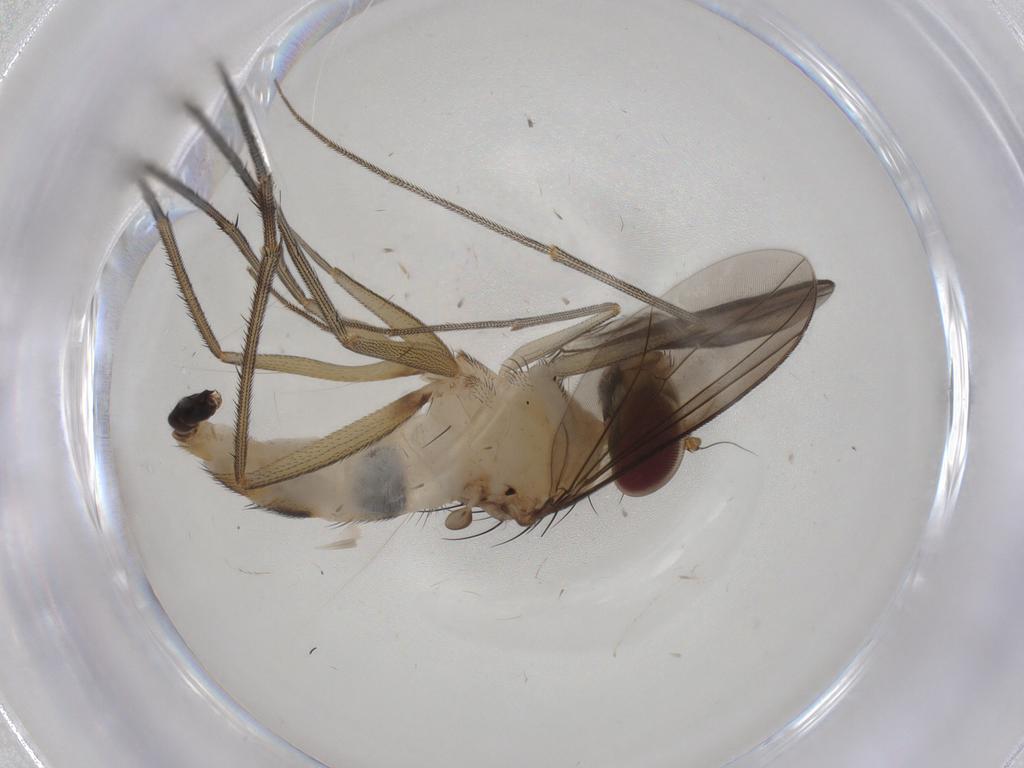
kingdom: Animalia
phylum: Arthropoda
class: Insecta
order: Diptera
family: Dolichopodidae
